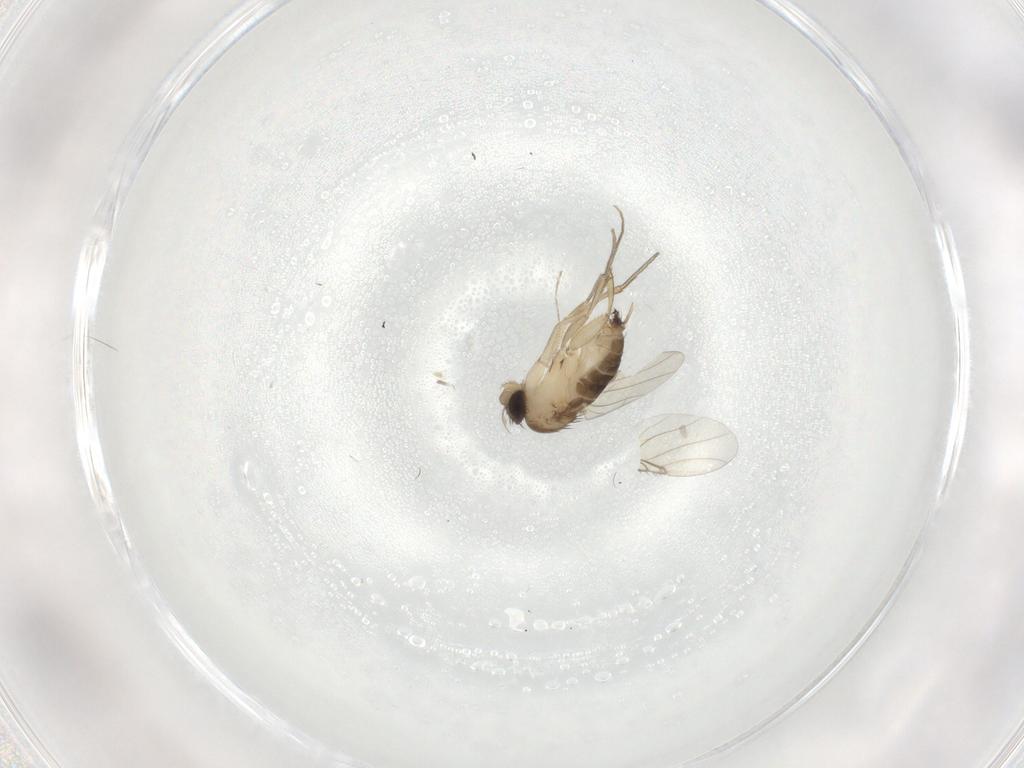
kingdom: Animalia
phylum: Arthropoda
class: Insecta
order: Diptera
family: Phoridae
